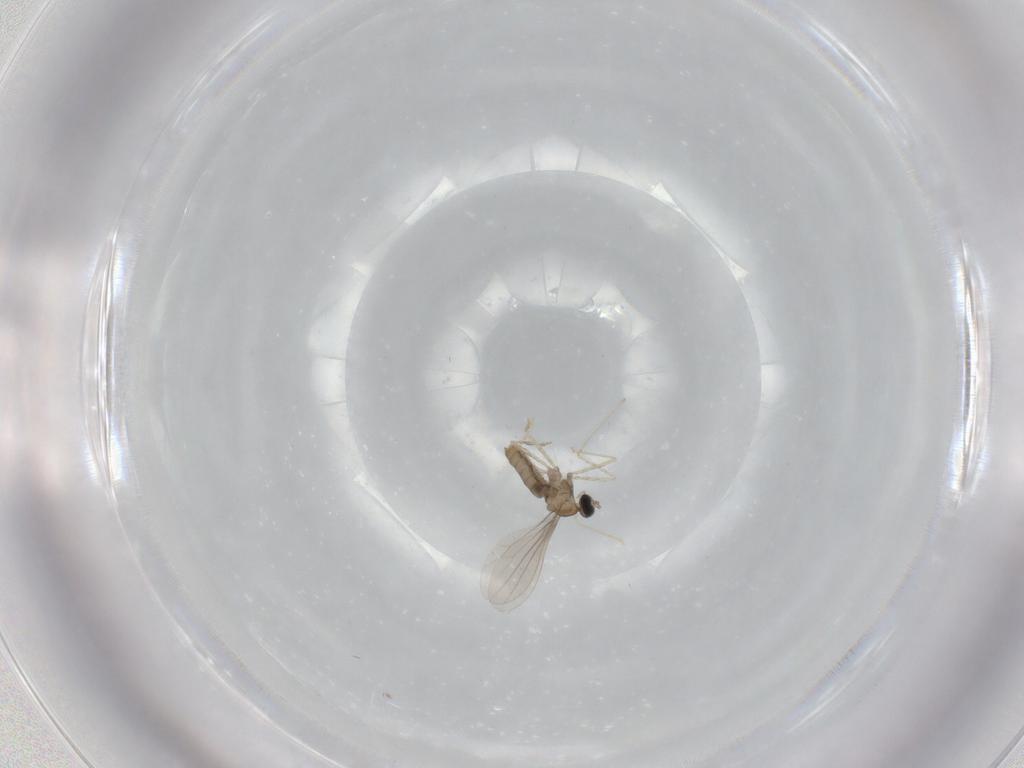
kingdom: Animalia
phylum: Arthropoda
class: Insecta
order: Diptera
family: Cecidomyiidae
